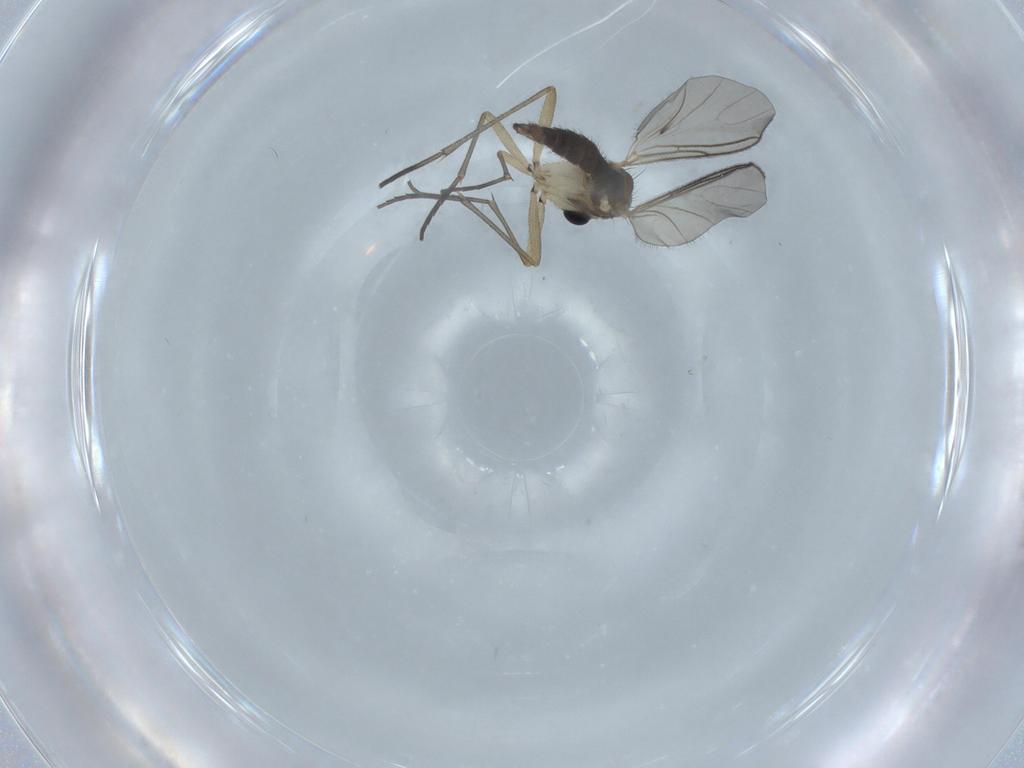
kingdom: Animalia
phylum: Arthropoda
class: Insecta
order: Diptera
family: Sciaridae
